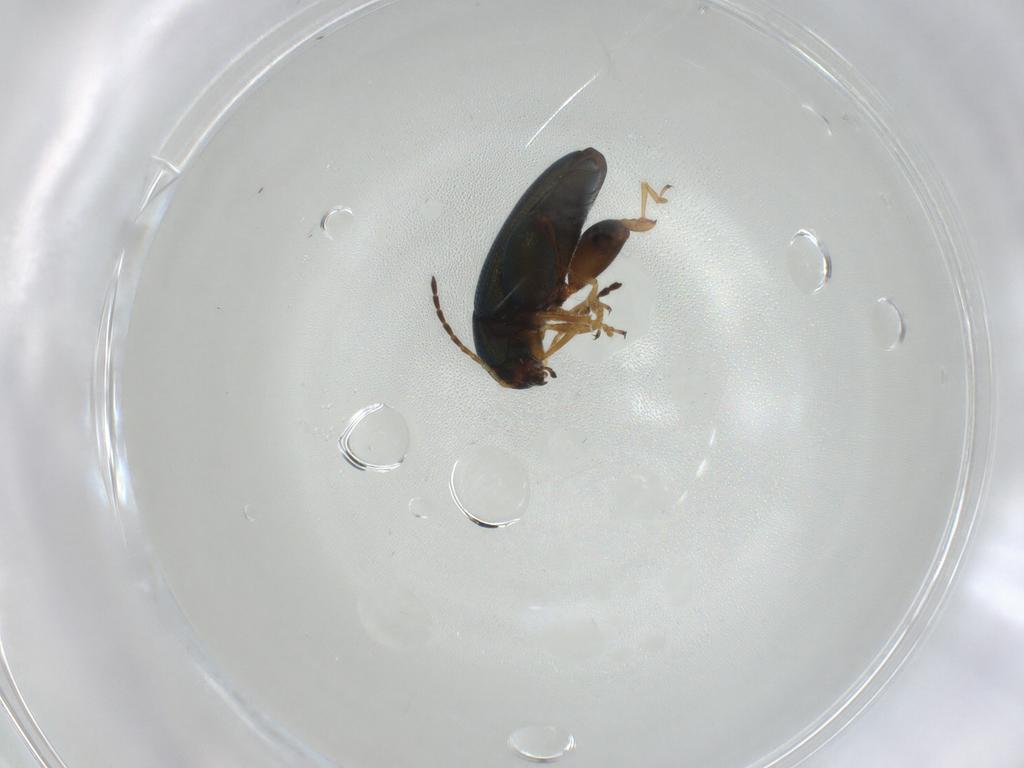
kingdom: Animalia
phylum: Arthropoda
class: Insecta
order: Coleoptera
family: Chrysomelidae
